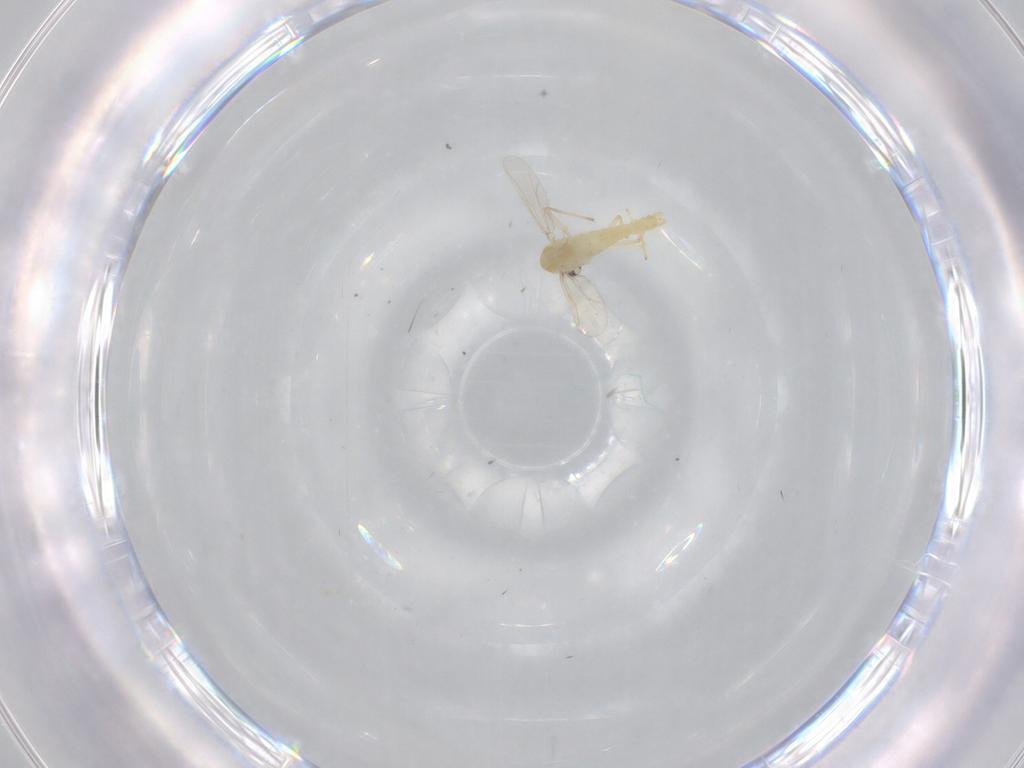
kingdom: Animalia
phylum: Arthropoda
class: Insecta
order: Diptera
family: Chironomidae
